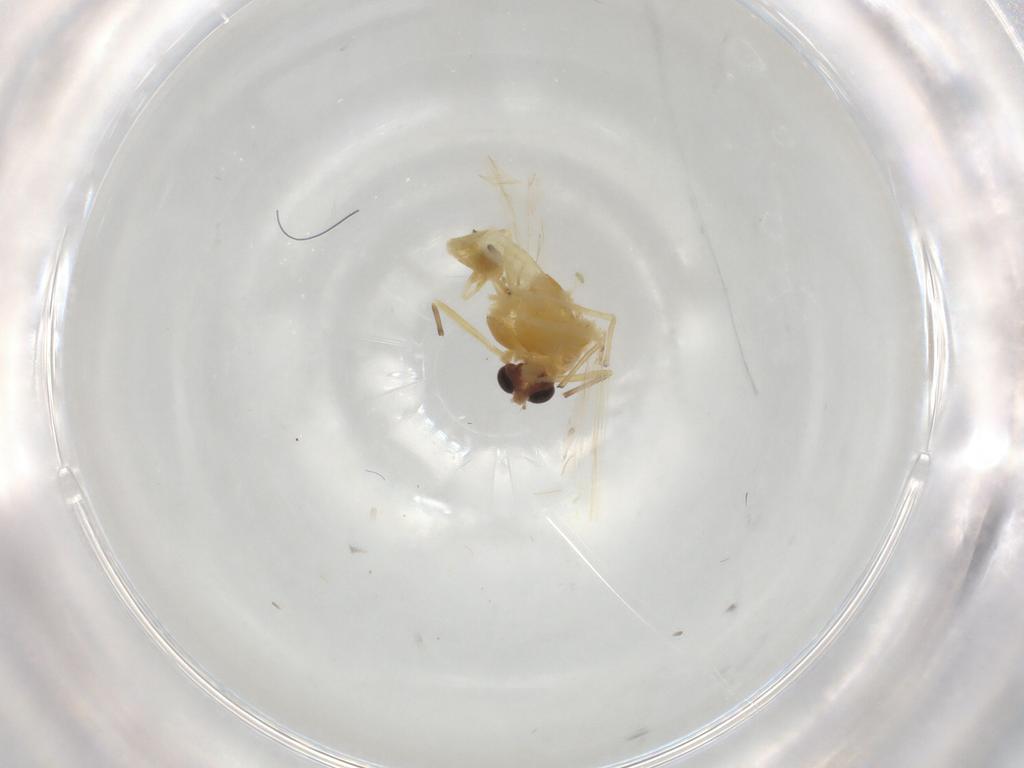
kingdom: Animalia
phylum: Arthropoda
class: Insecta
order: Diptera
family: Chironomidae
